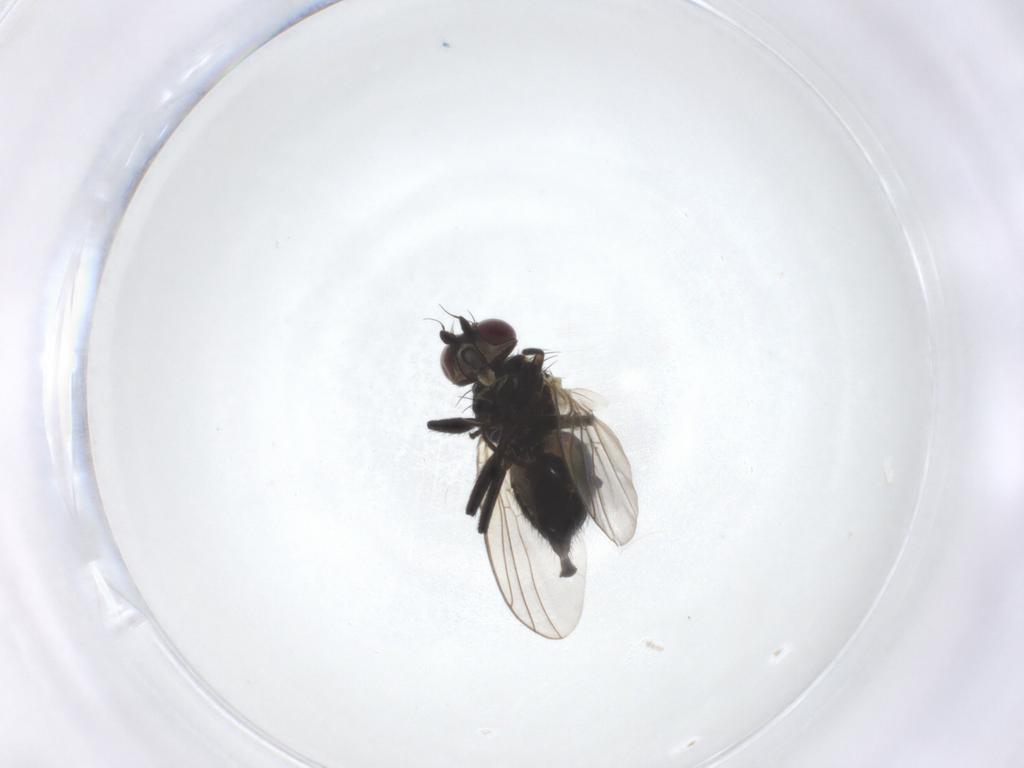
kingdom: Animalia
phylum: Arthropoda
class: Insecta
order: Diptera
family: Agromyzidae
